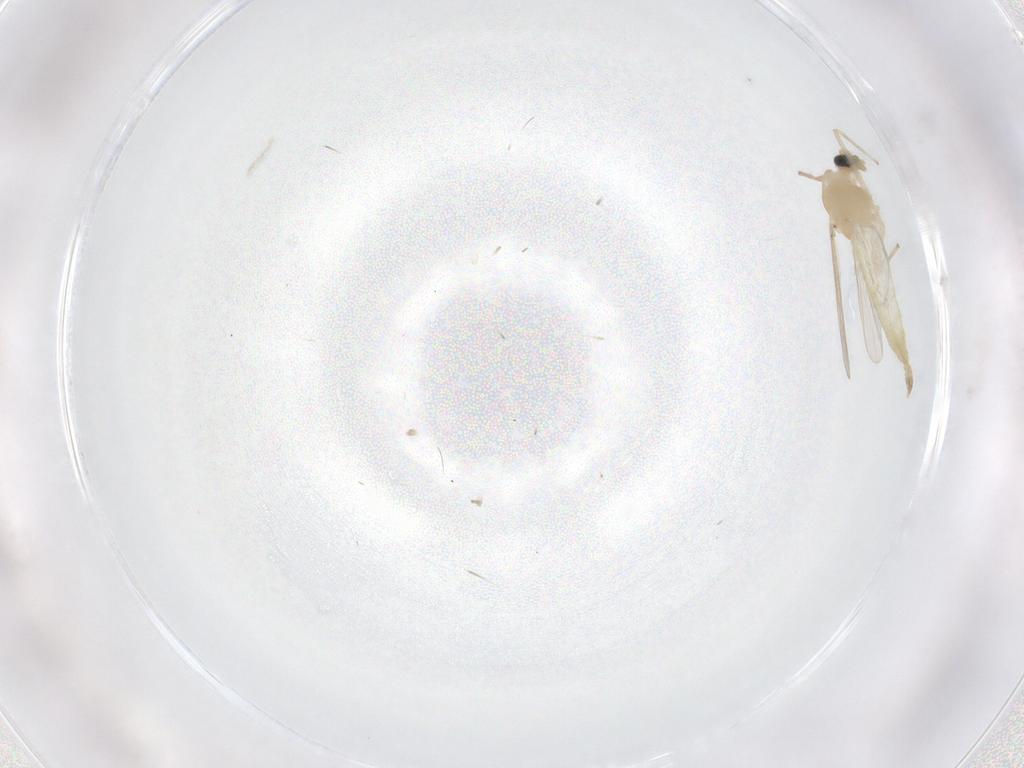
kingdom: Animalia
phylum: Arthropoda
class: Insecta
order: Diptera
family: Chironomidae
